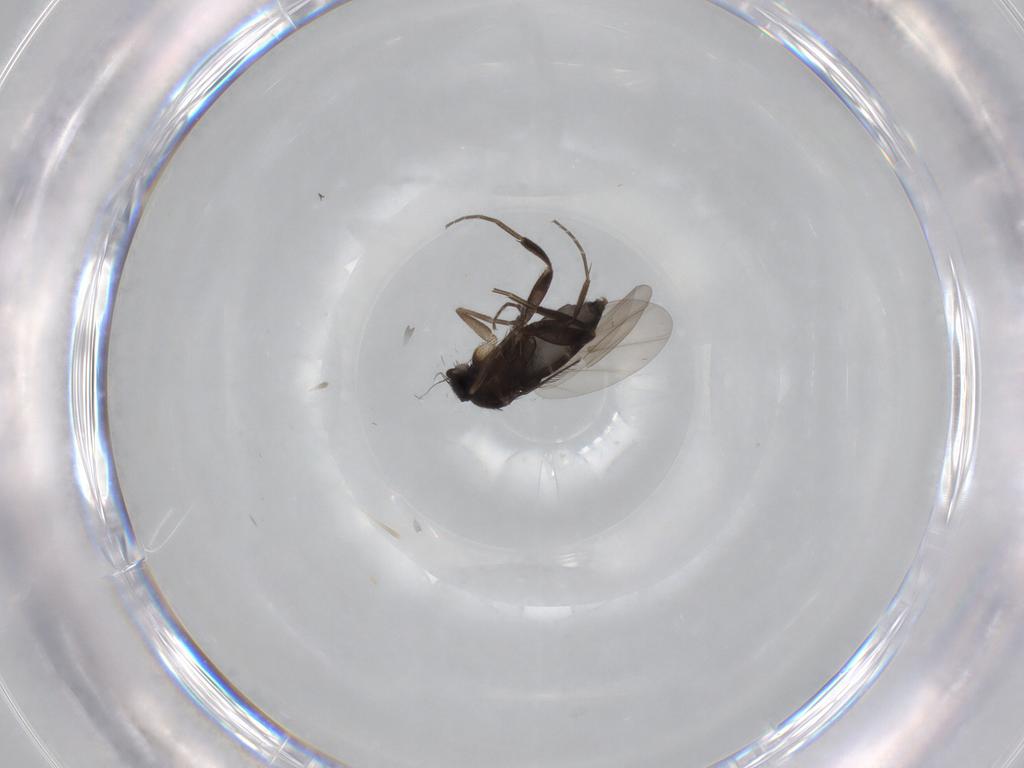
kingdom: Animalia
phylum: Arthropoda
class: Insecta
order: Diptera
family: Phoridae
